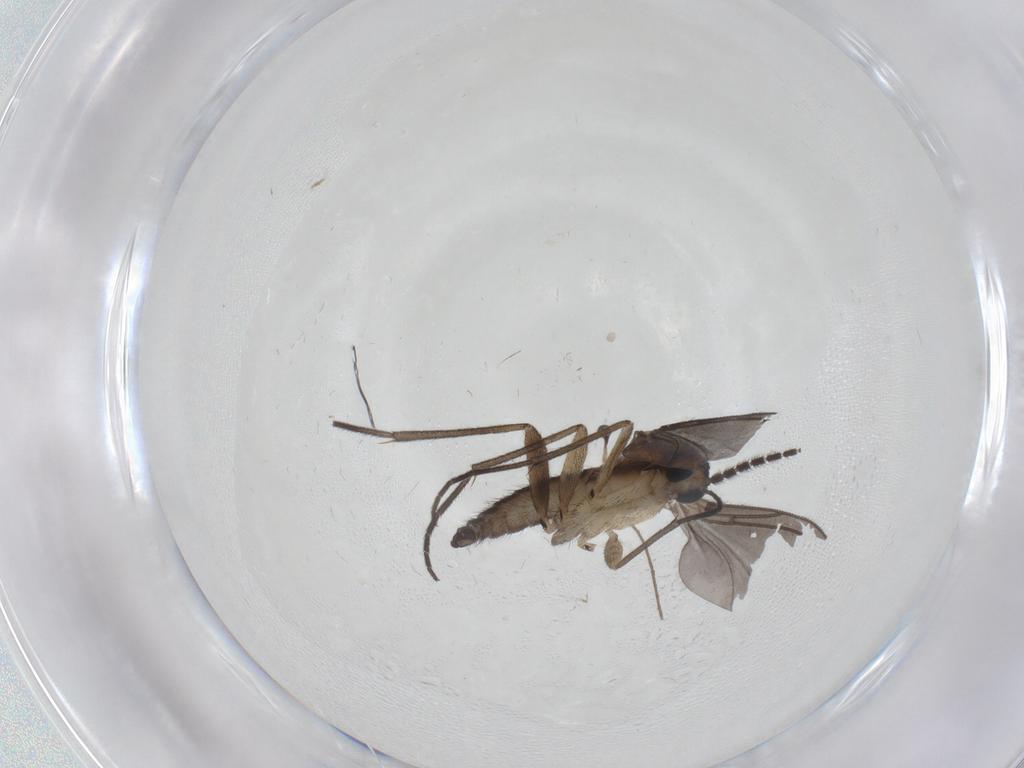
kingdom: Animalia
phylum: Arthropoda
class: Insecta
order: Diptera
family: Sciaridae
